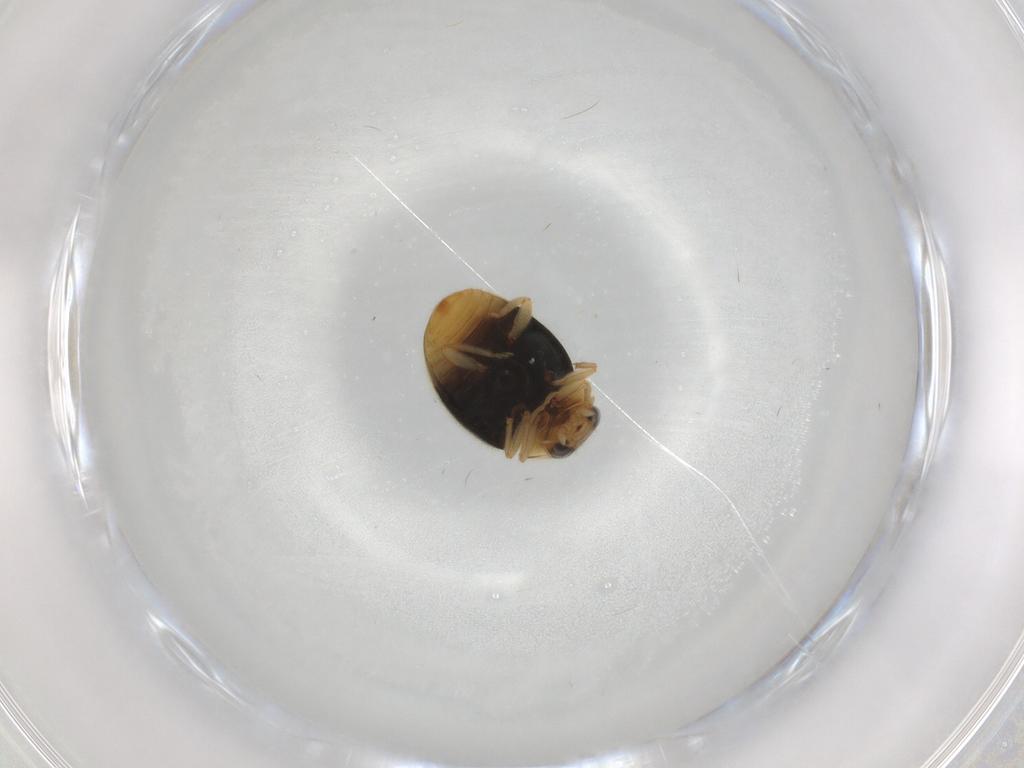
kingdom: Animalia
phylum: Arthropoda
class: Insecta
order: Coleoptera
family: Coccinellidae
